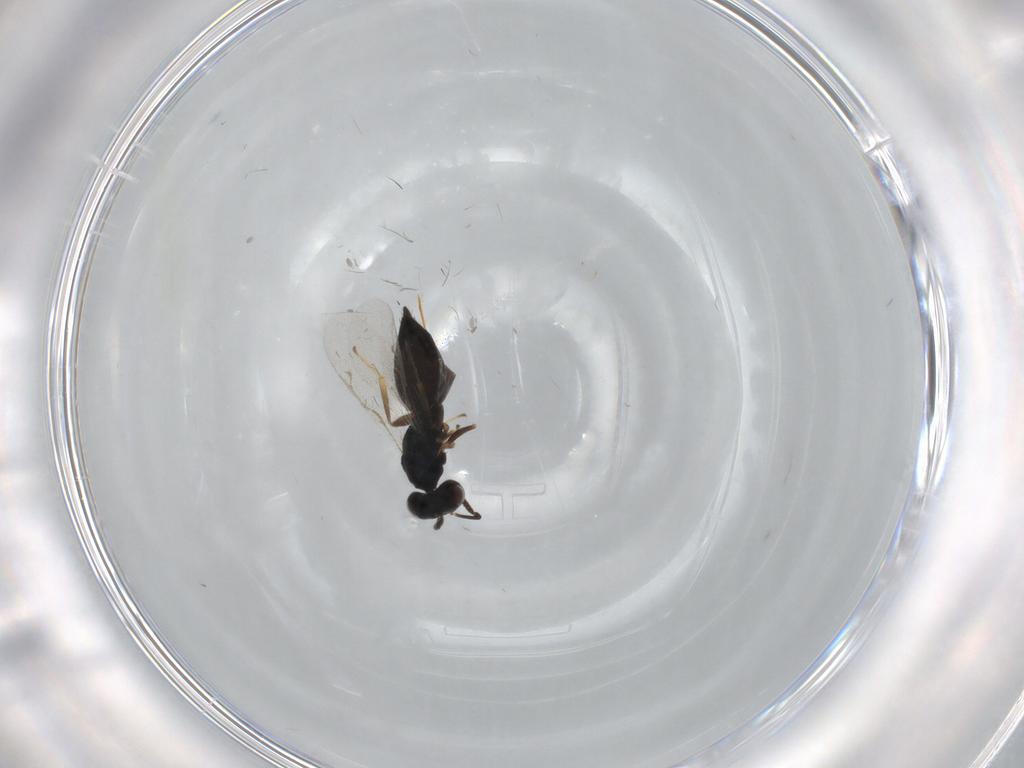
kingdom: Animalia
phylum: Arthropoda
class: Insecta
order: Hymenoptera
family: Pteromalidae
